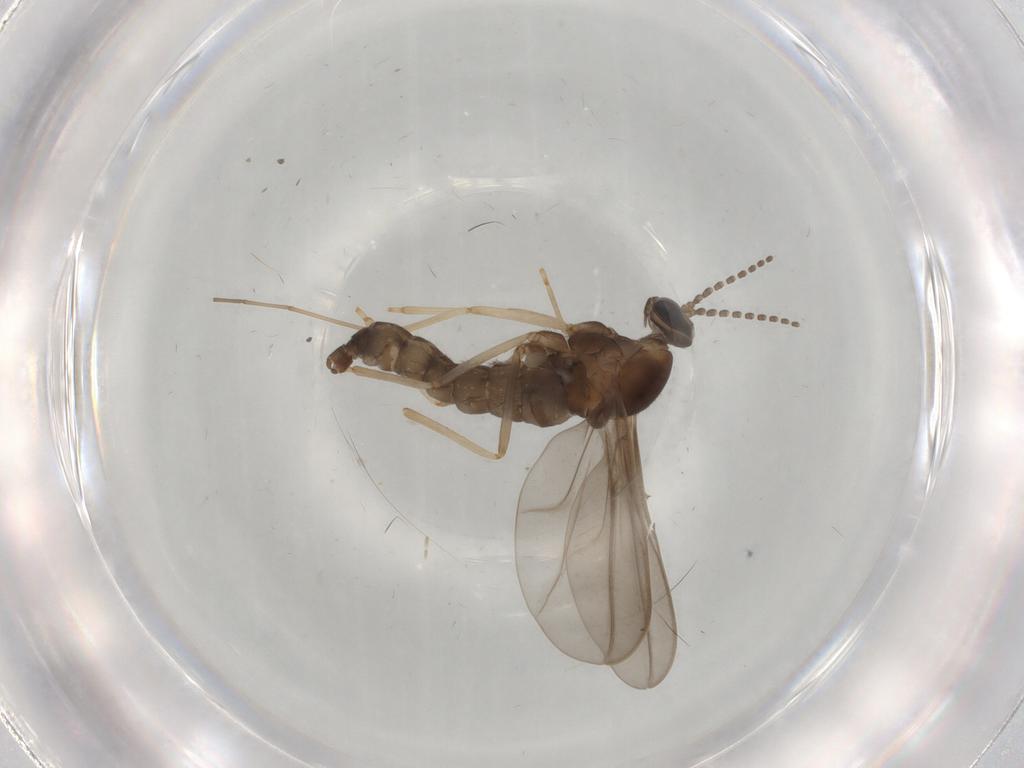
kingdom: Animalia
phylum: Arthropoda
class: Insecta
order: Diptera
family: Cecidomyiidae
